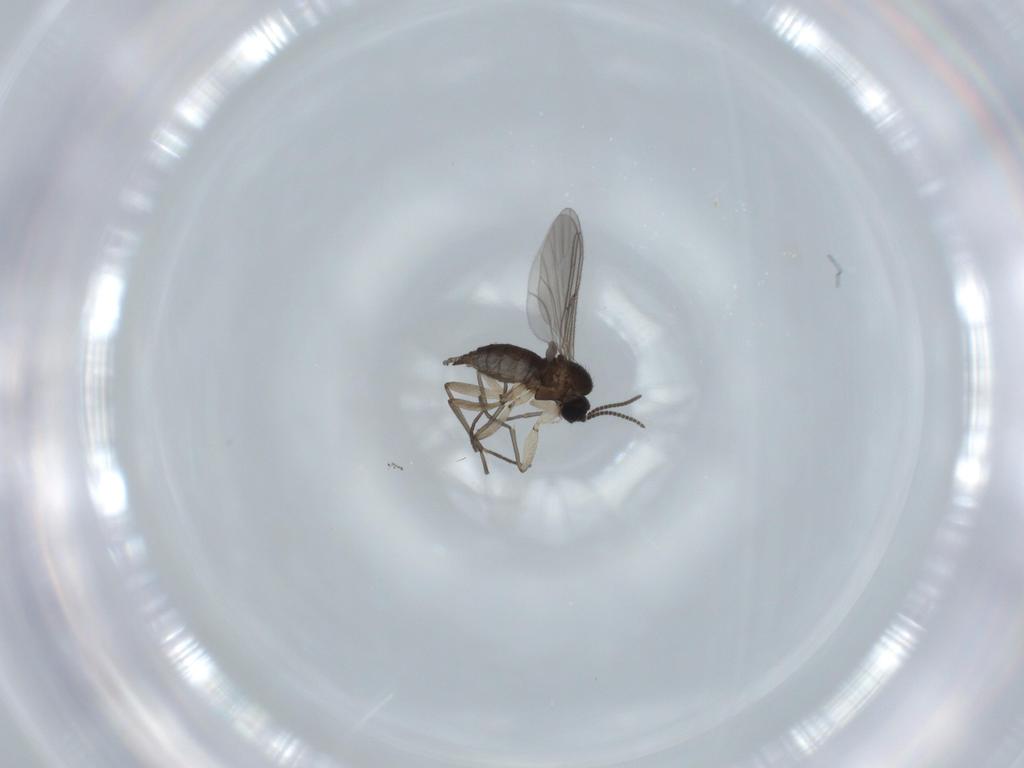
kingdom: Animalia
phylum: Arthropoda
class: Insecta
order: Diptera
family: Sciaridae
